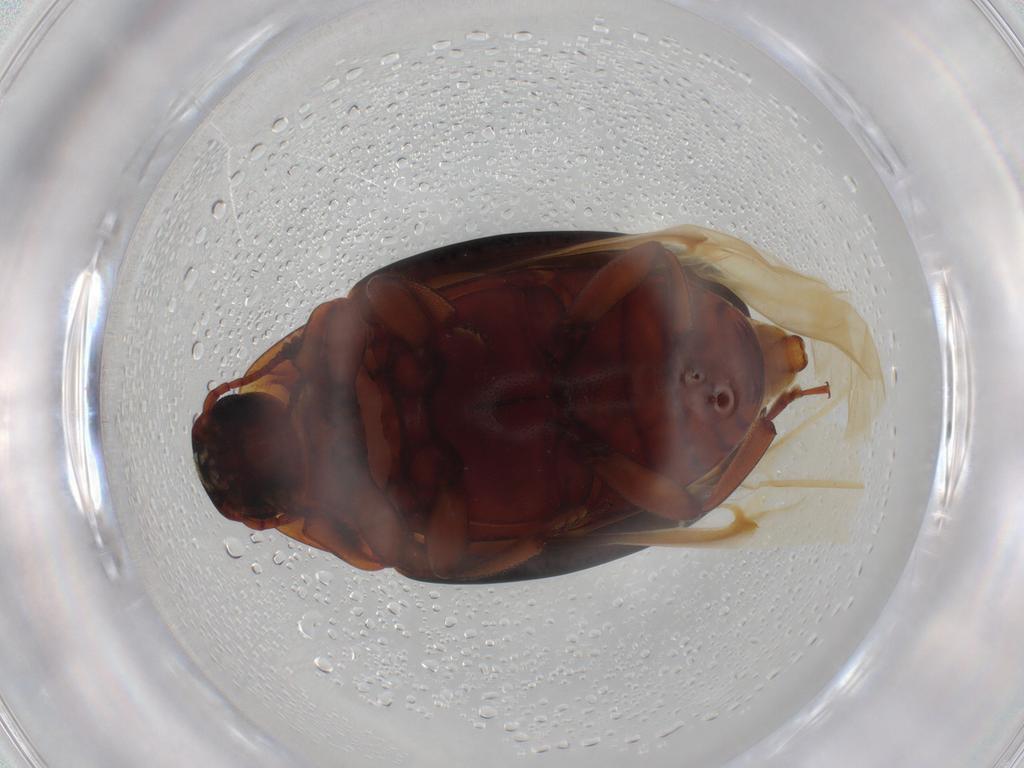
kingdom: Animalia
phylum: Arthropoda
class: Insecta
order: Coleoptera
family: Zopheridae
